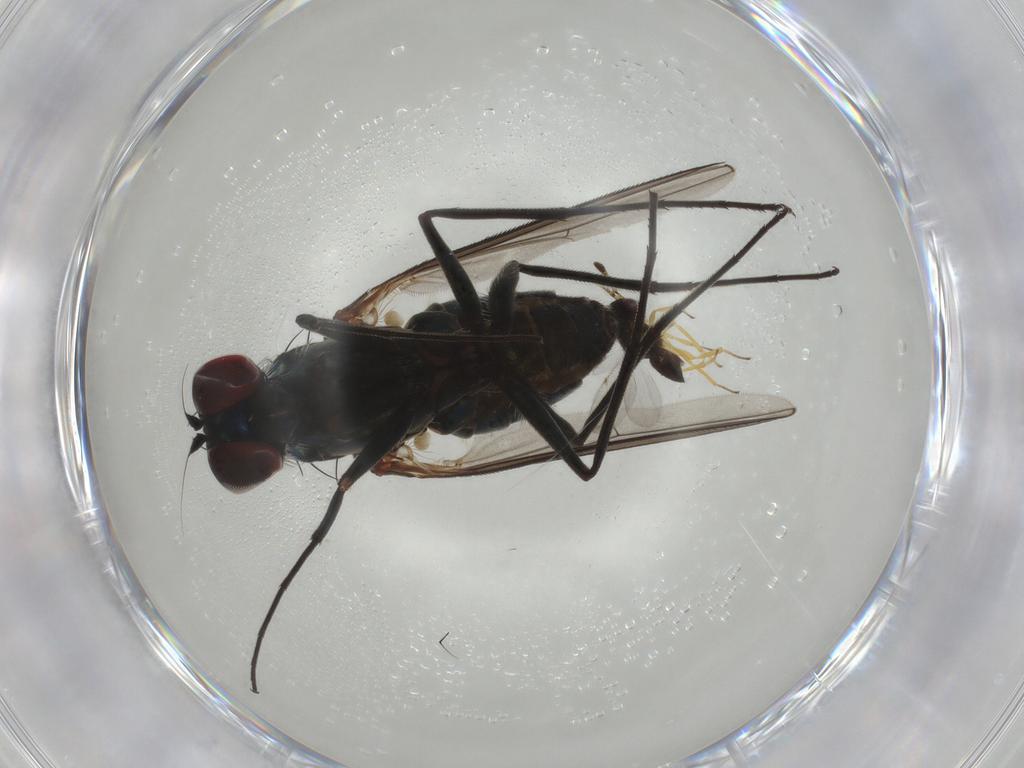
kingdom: Animalia
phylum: Arthropoda
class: Insecta
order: Diptera
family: Dolichopodidae
